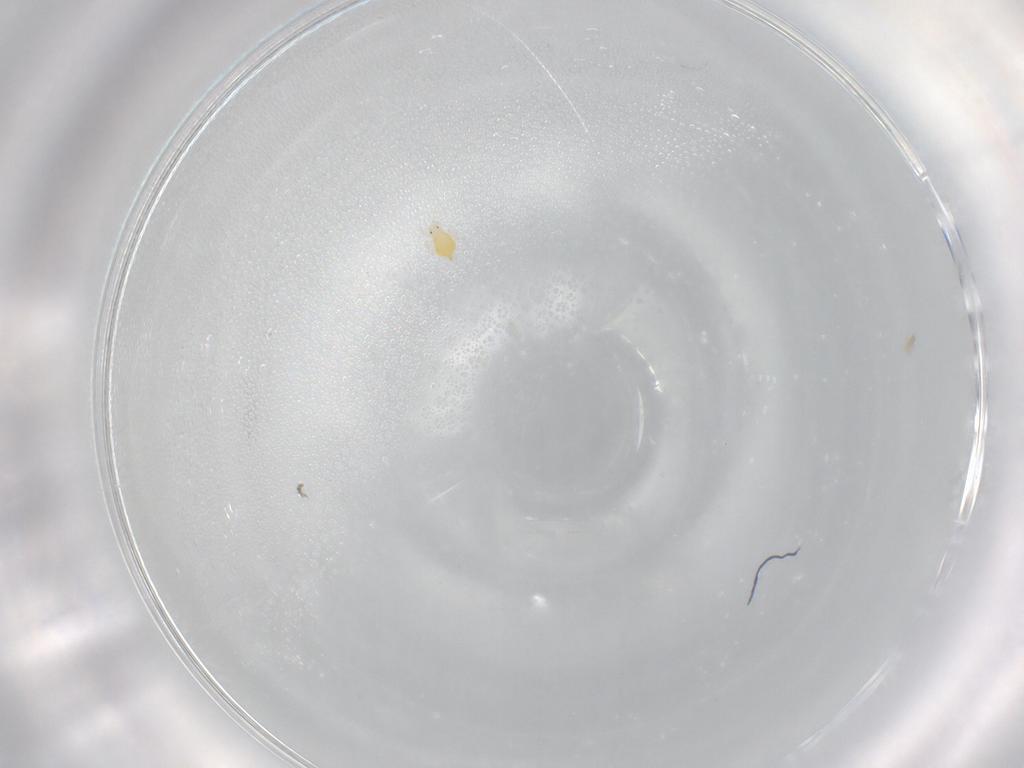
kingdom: Animalia
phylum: Arthropoda
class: Insecta
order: Thysanoptera
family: Thripidae
